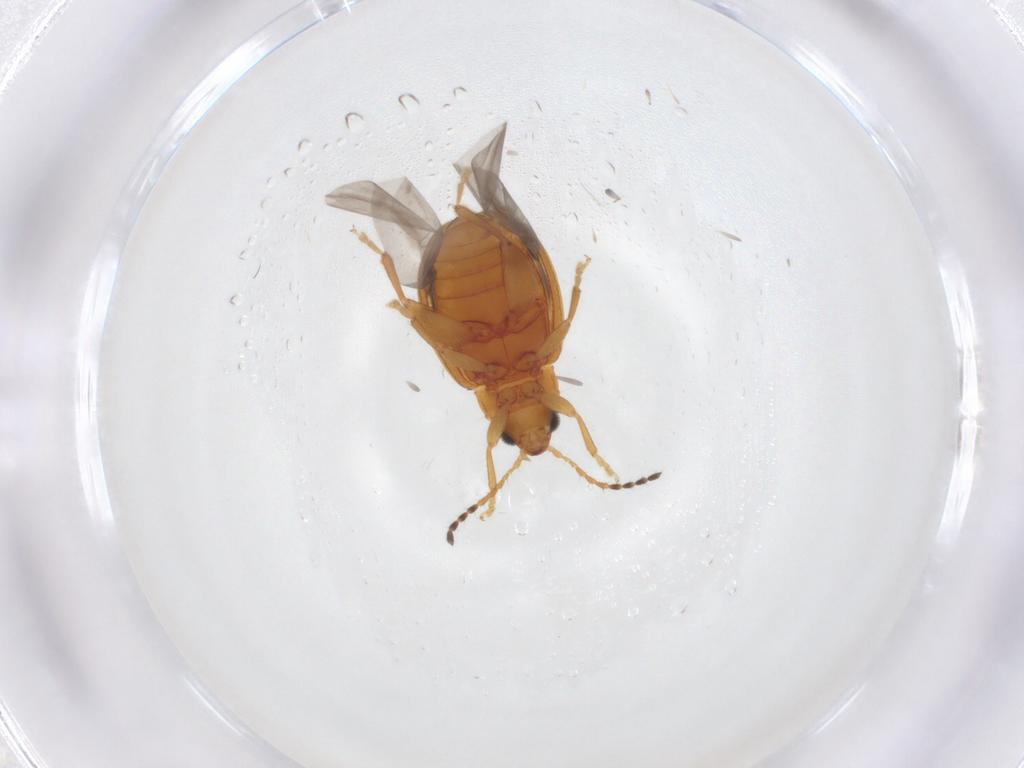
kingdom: Animalia
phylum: Arthropoda
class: Insecta
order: Coleoptera
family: Chrysomelidae
